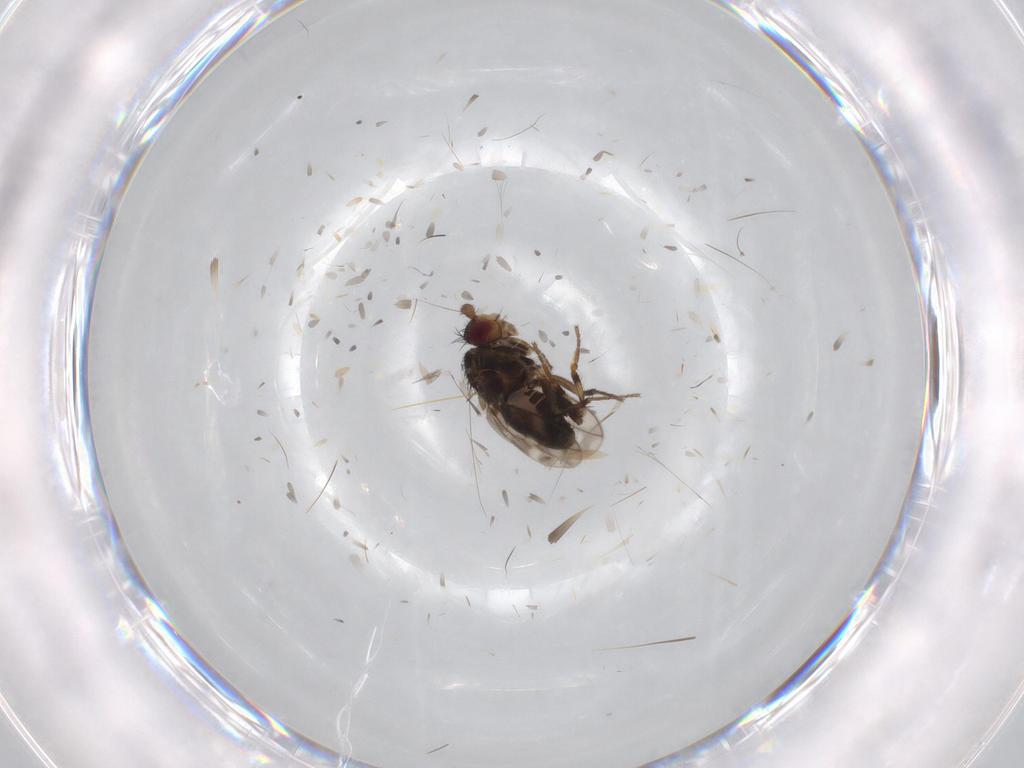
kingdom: Animalia
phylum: Arthropoda
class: Insecta
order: Diptera
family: Sphaeroceridae
